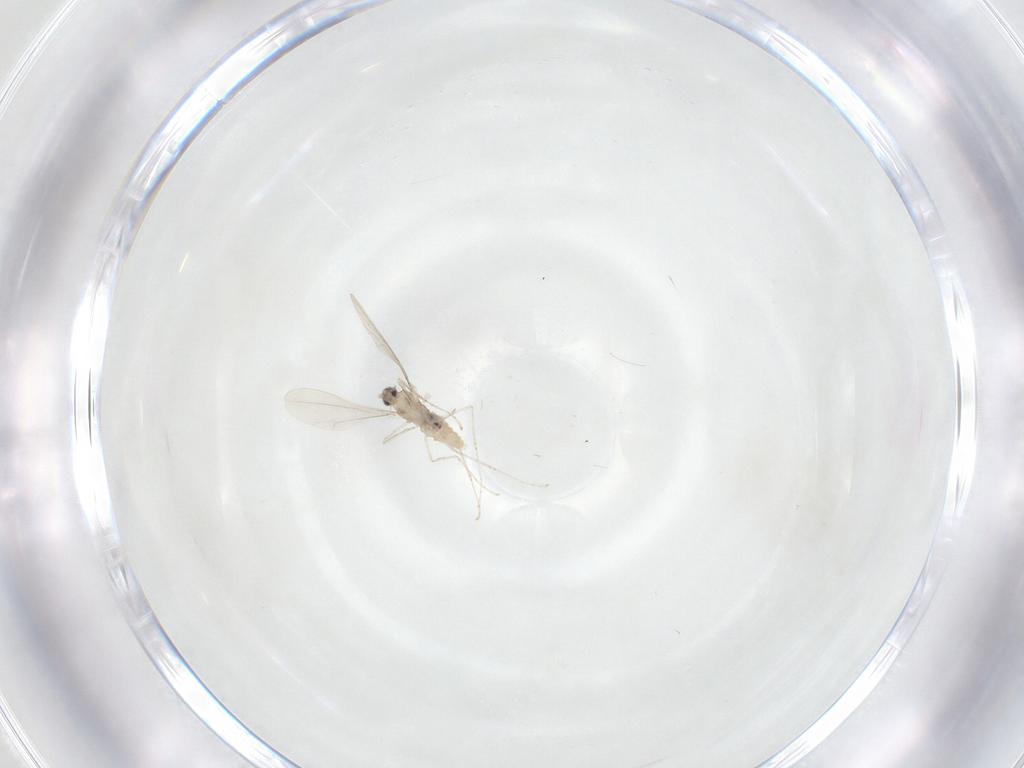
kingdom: Animalia
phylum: Arthropoda
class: Insecta
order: Diptera
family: Cecidomyiidae
